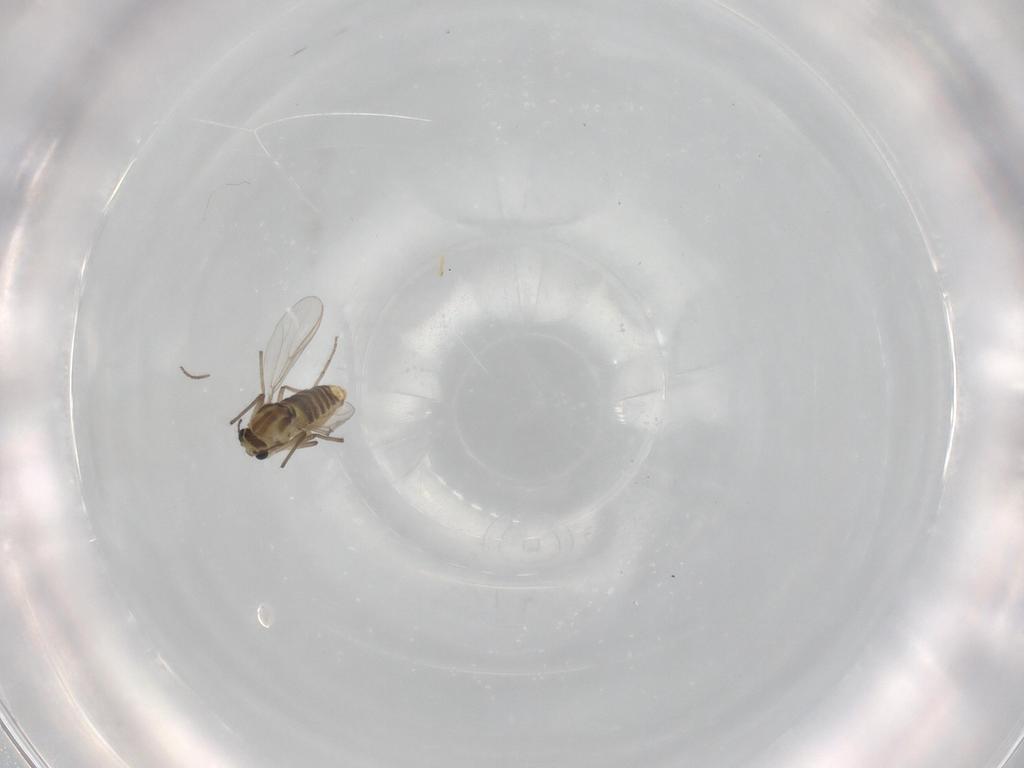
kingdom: Animalia
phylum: Arthropoda
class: Insecta
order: Diptera
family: Chironomidae
